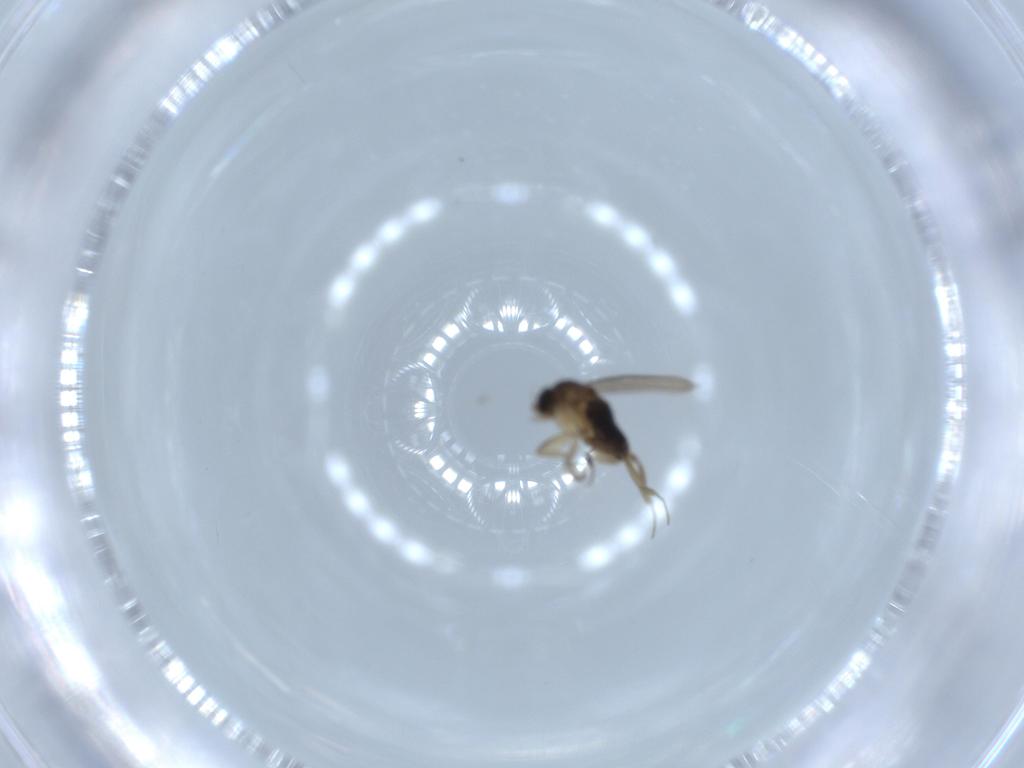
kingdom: Animalia
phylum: Arthropoda
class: Insecta
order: Diptera
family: Phoridae
